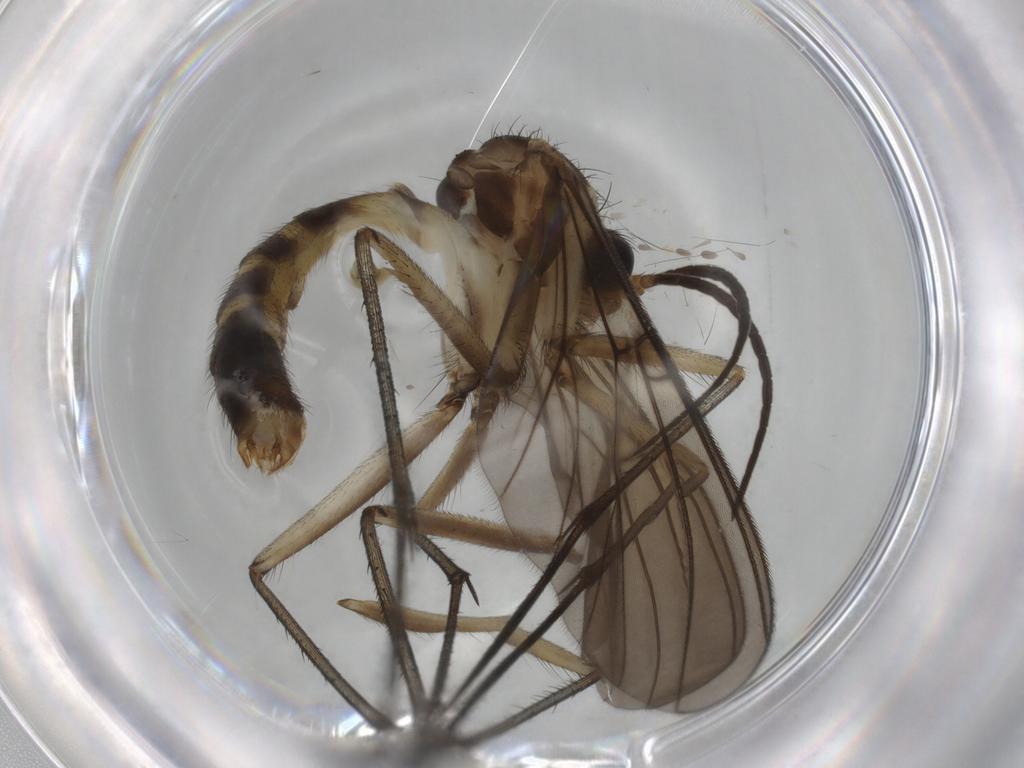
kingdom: Animalia
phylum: Arthropoda
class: Insecta
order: Diptera
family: Mycetophilidae
